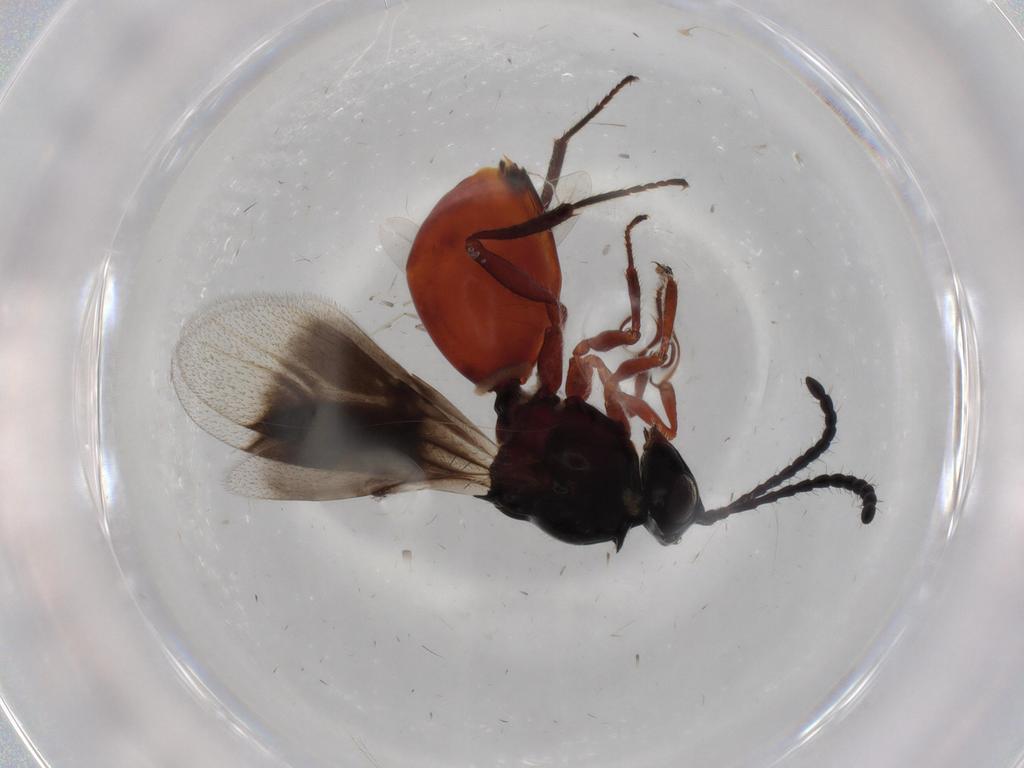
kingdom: Animalia
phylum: Arthropoda
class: Insecta
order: Hymenoptera
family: Figitidae
